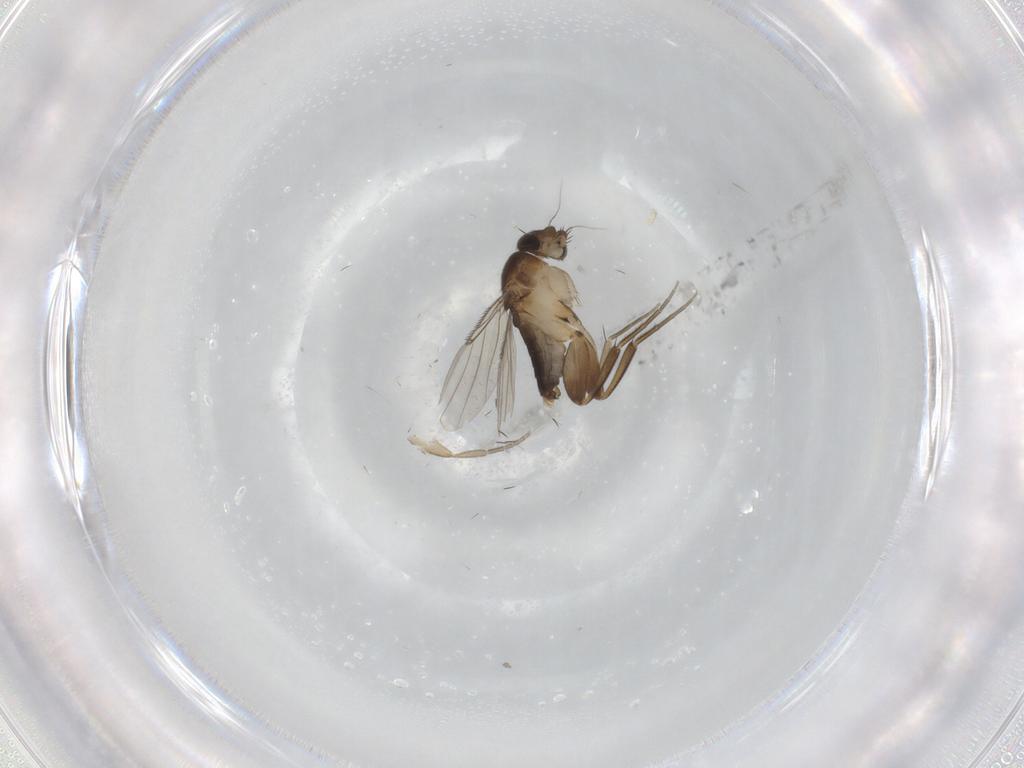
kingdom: Animalia
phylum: Arthropoda
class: Insecta
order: Diptera
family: Phoridae
